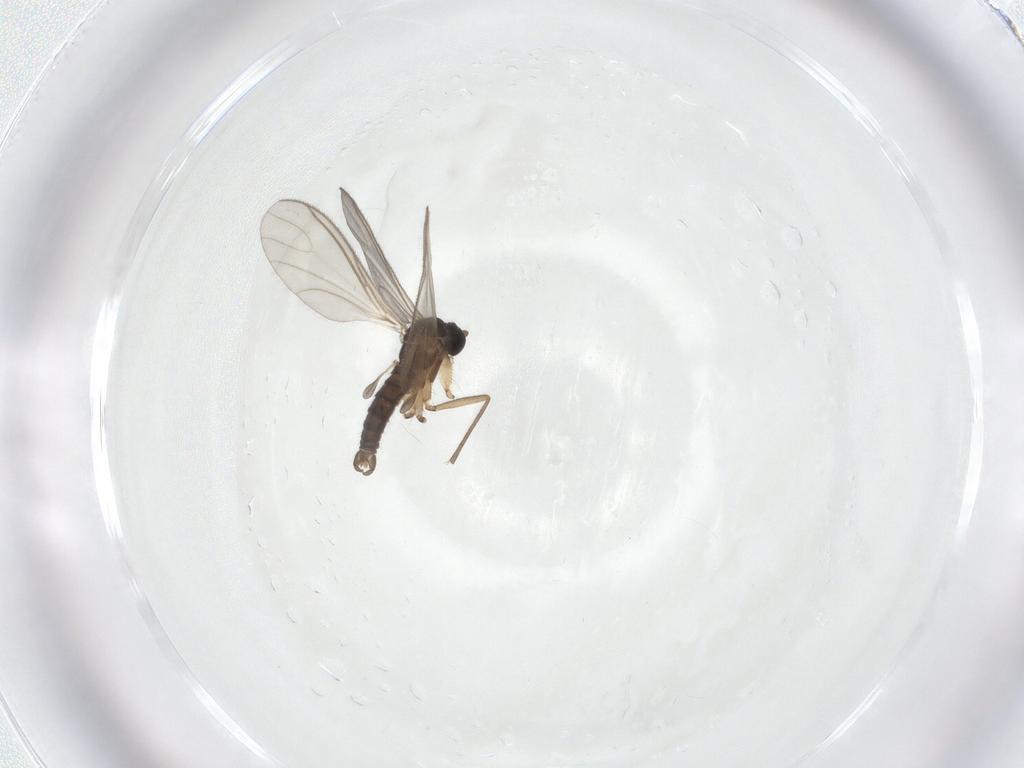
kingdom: Animalia
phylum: Arthropoda
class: Insecta
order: Diptera
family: Sciaridae
